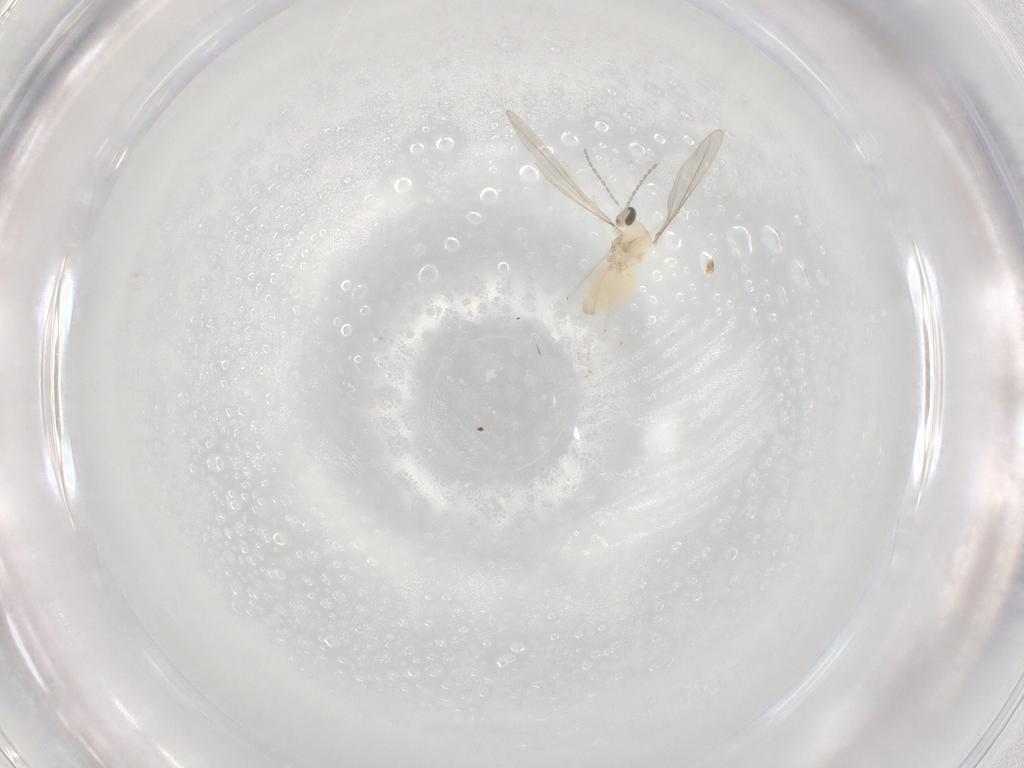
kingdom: Animalia
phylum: Arthropoda
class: Insecta
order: Diptera
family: Cecidomyiidae
